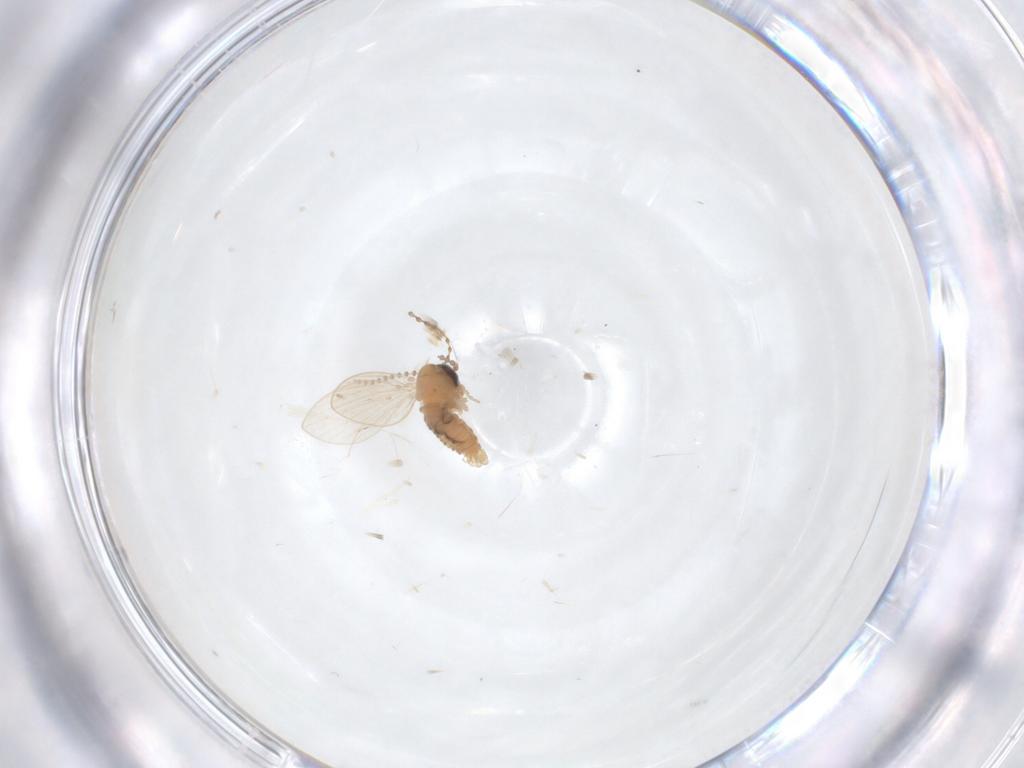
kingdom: Animalia
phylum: Arthropoda
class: Insecta
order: Diptera
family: Cecidomyiidae
